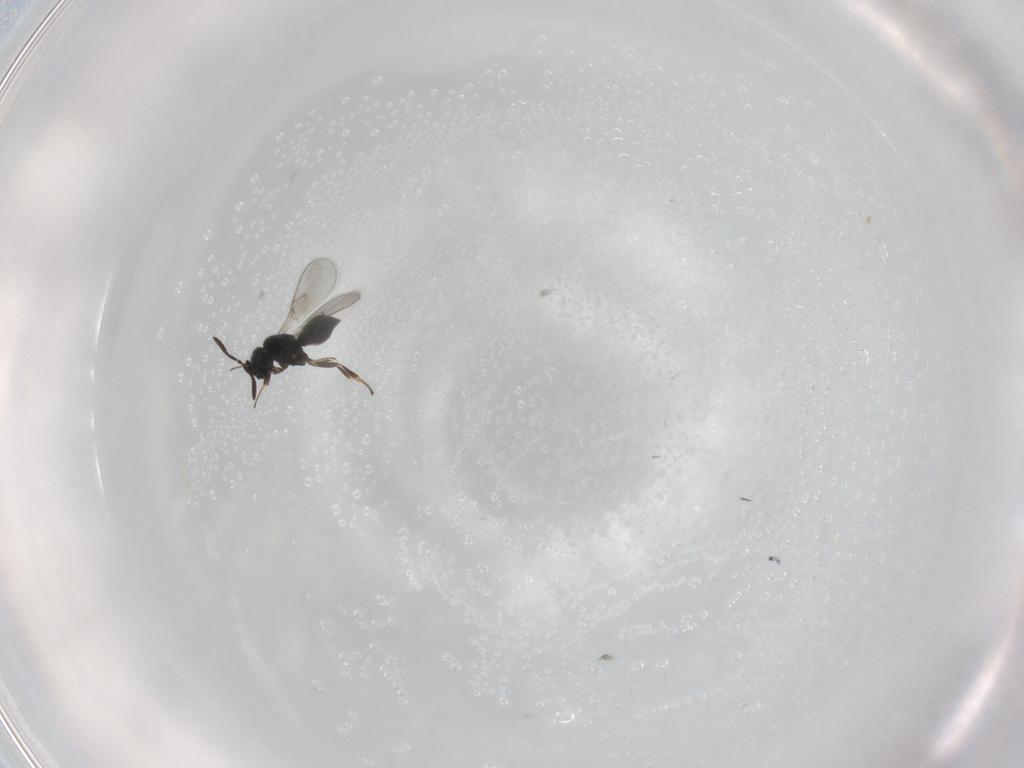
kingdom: Animalia
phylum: Arthropoda
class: Insecta
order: Hymenoptera
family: Scelionidae
